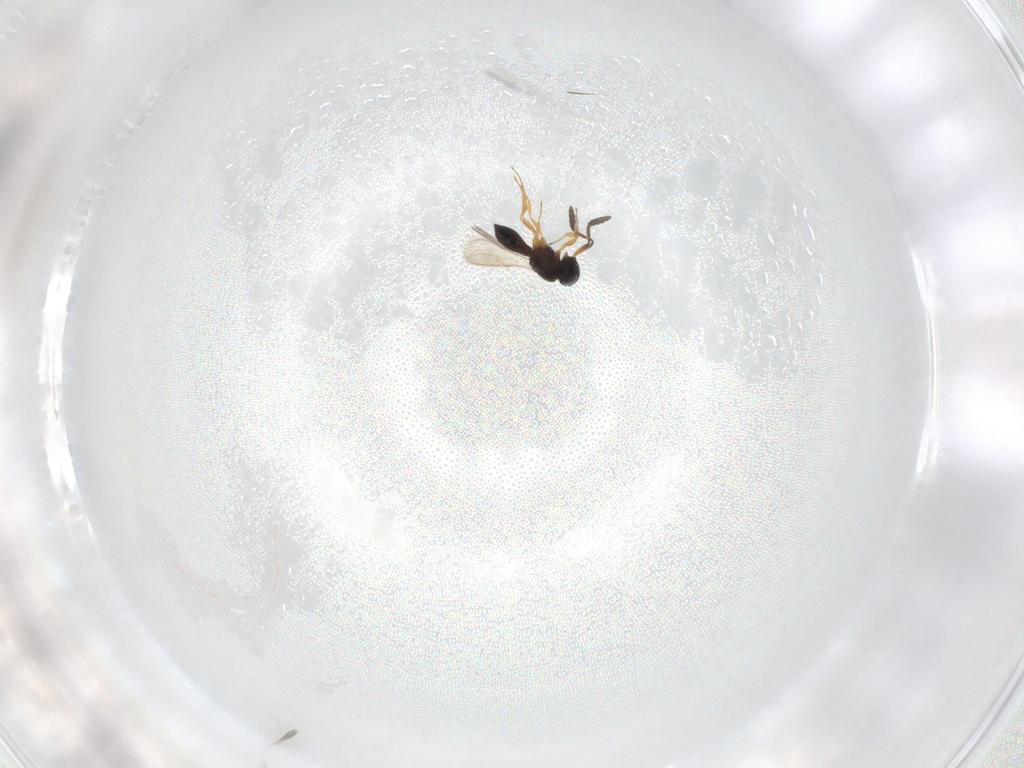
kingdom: Animalia
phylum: Arthropoda
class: Insecta
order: Hymenoptera
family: Scelionidae
